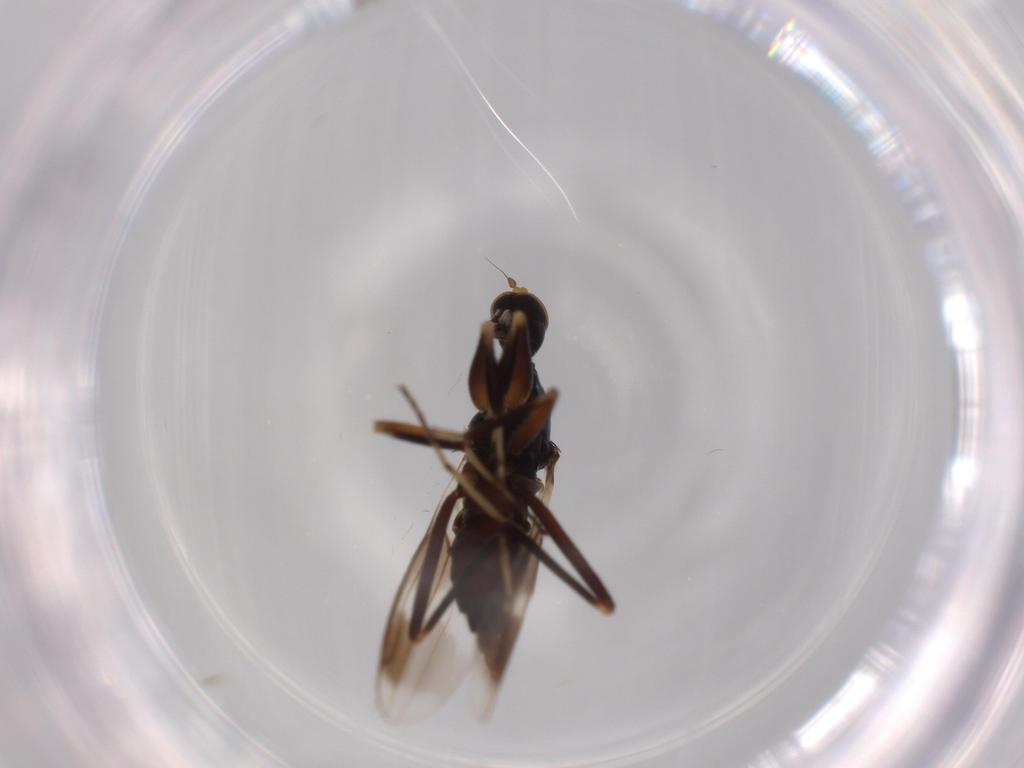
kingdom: Animalia
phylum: Arthropoda
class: Insecta
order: Diptera
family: Hybotidae
